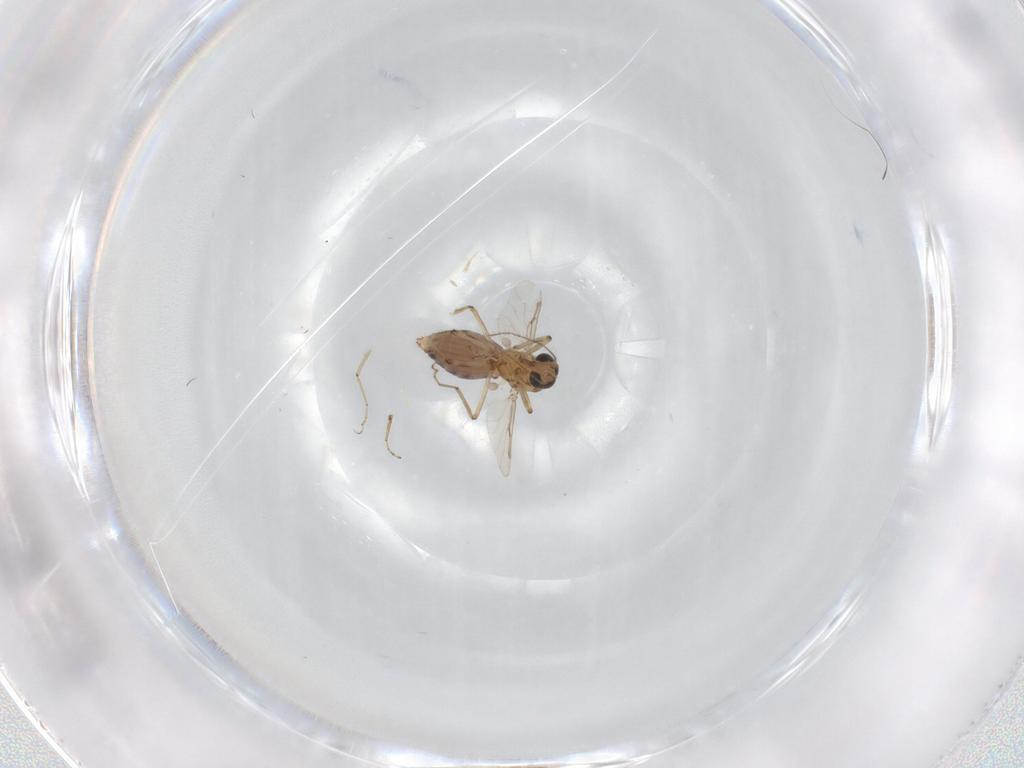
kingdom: Animalia
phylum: Arthropoda
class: Insecta
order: Diptera
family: Ceratopogonidae
